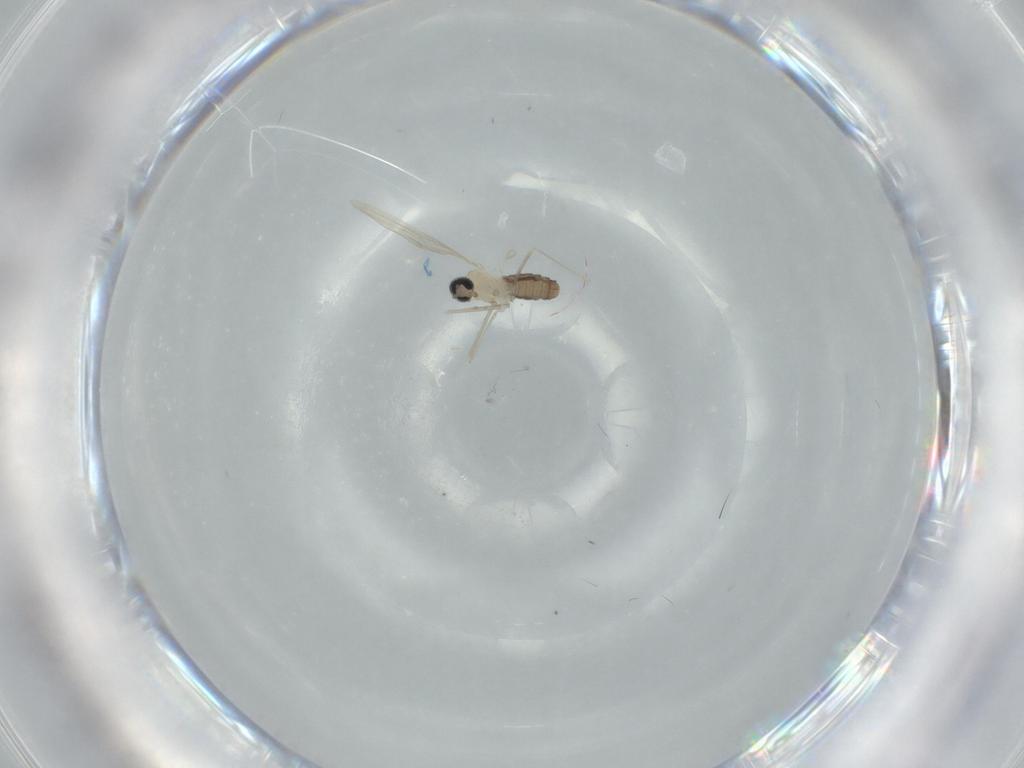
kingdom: Animalia
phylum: Arthropoda
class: Insecta
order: Diptera
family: Cecidomyiidae
